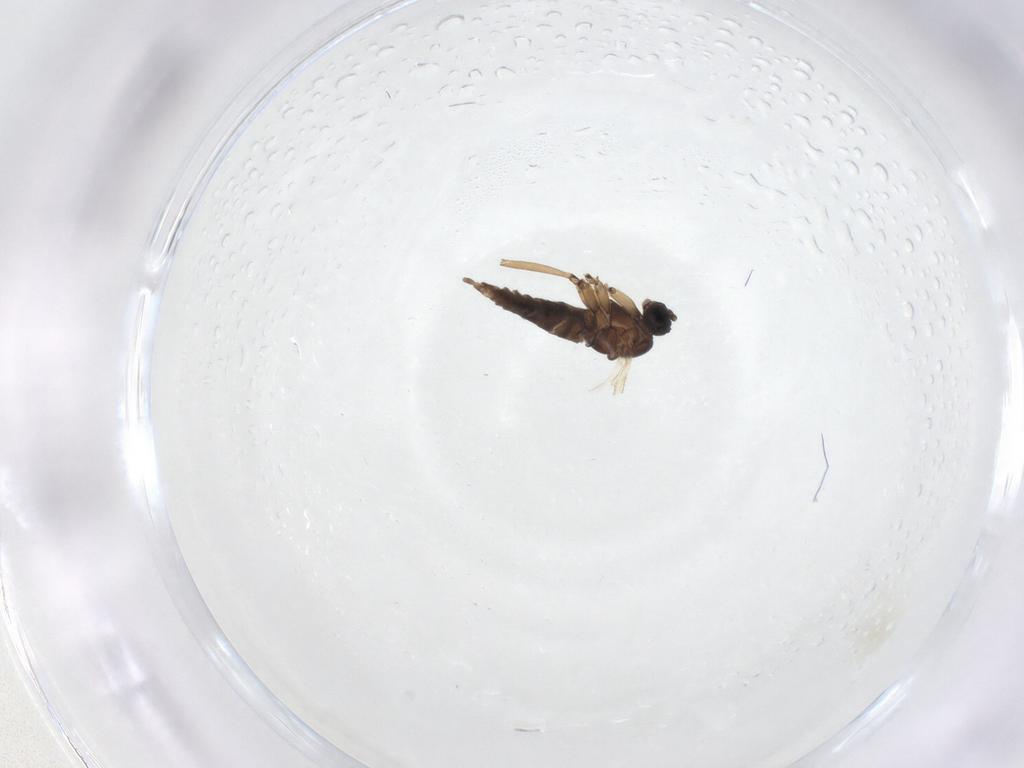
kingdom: Animalia
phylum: Arthropoda
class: Insecta
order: Diptera
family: Sciaridae
